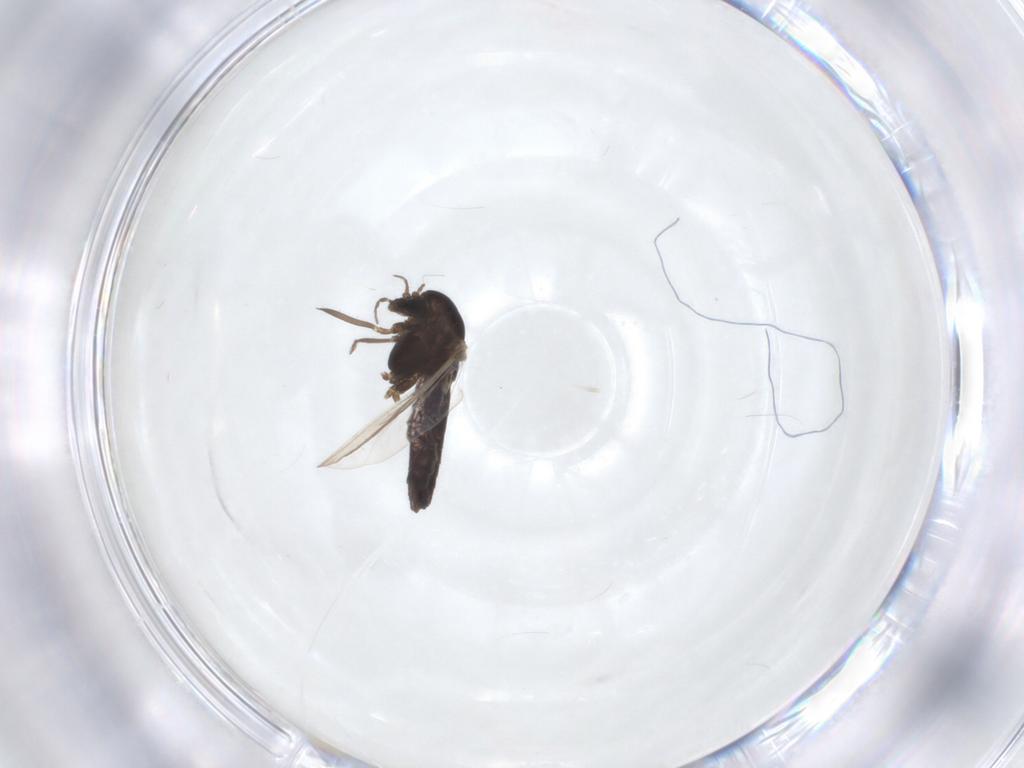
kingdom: Animalia
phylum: Arthropoda
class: Insecta
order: Diptera
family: Chironomidae
